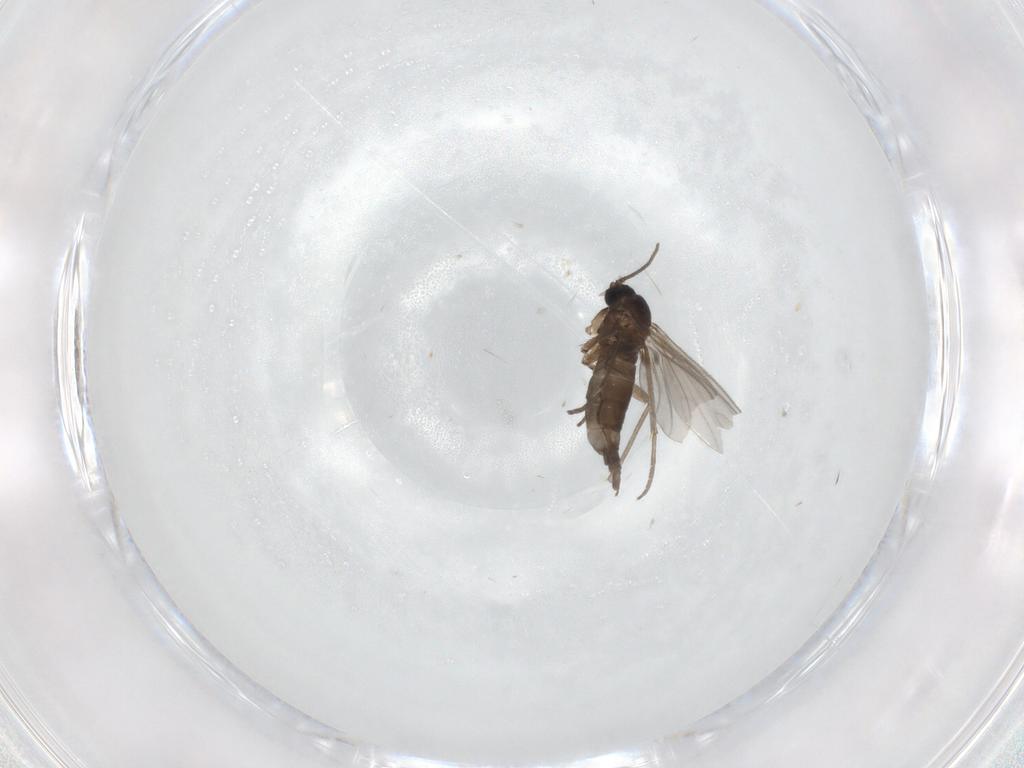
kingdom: Animalia
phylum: Arthropoda
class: Insecta
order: Diptera
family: Sciaridae
